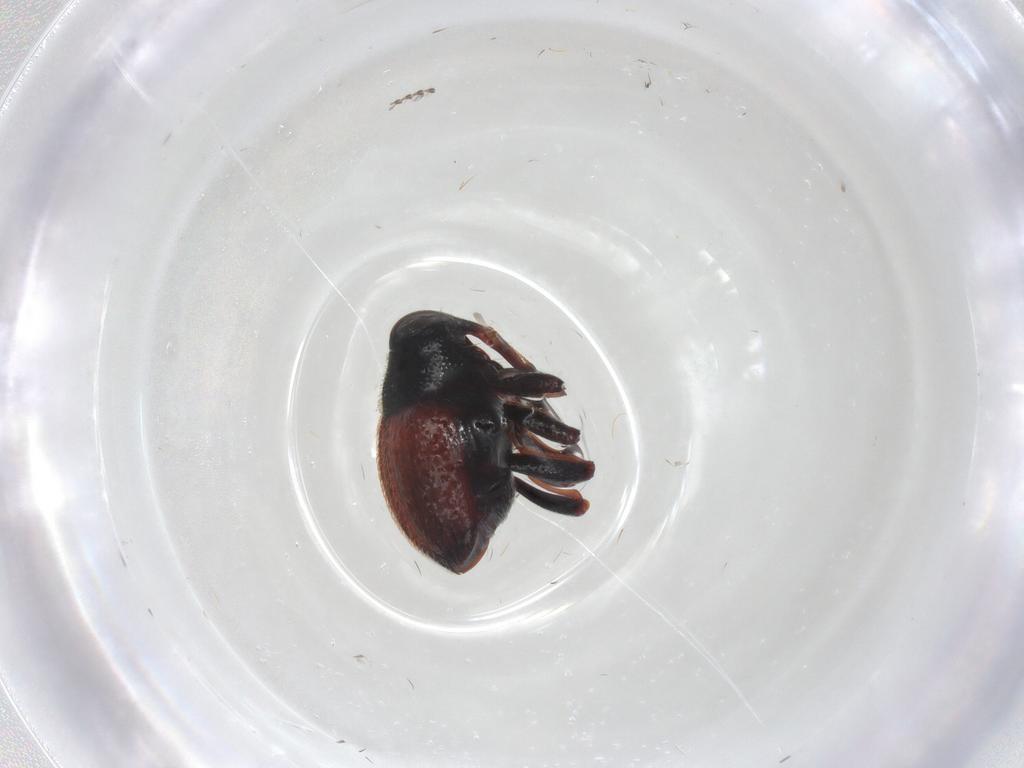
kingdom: Animalia
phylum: Arthropoda
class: Insecta
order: Coleoptera
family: Curculionidae
